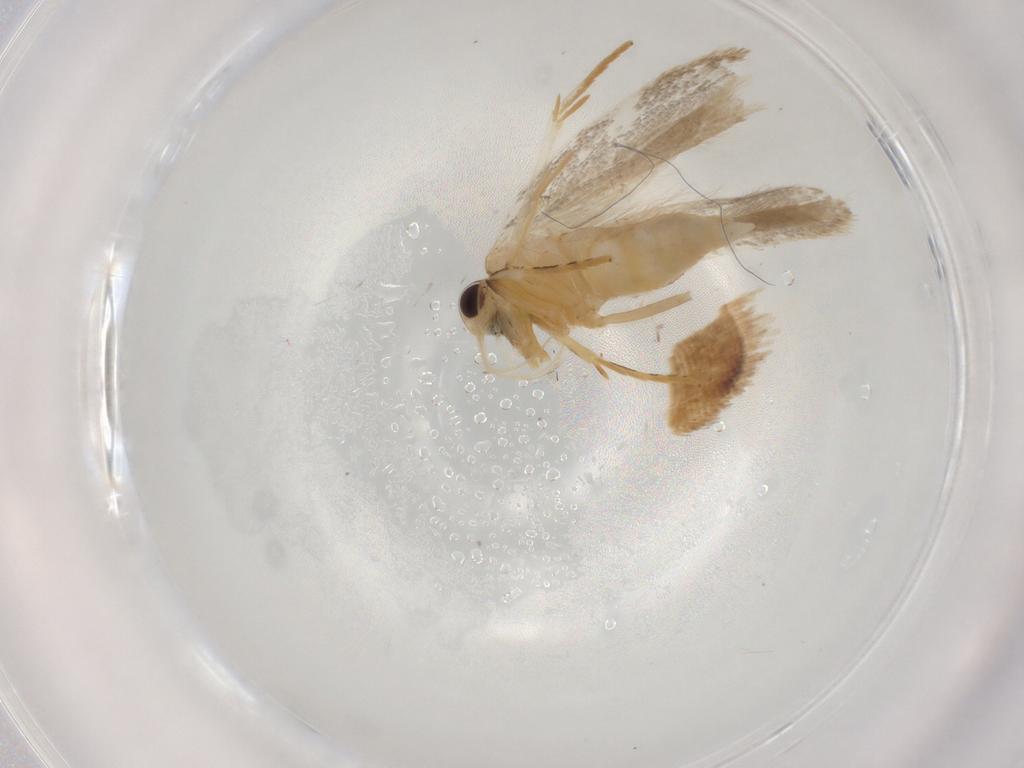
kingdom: Animalia
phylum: Arthropoda
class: Insecta
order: Lepidoptera
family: Autostichidae
